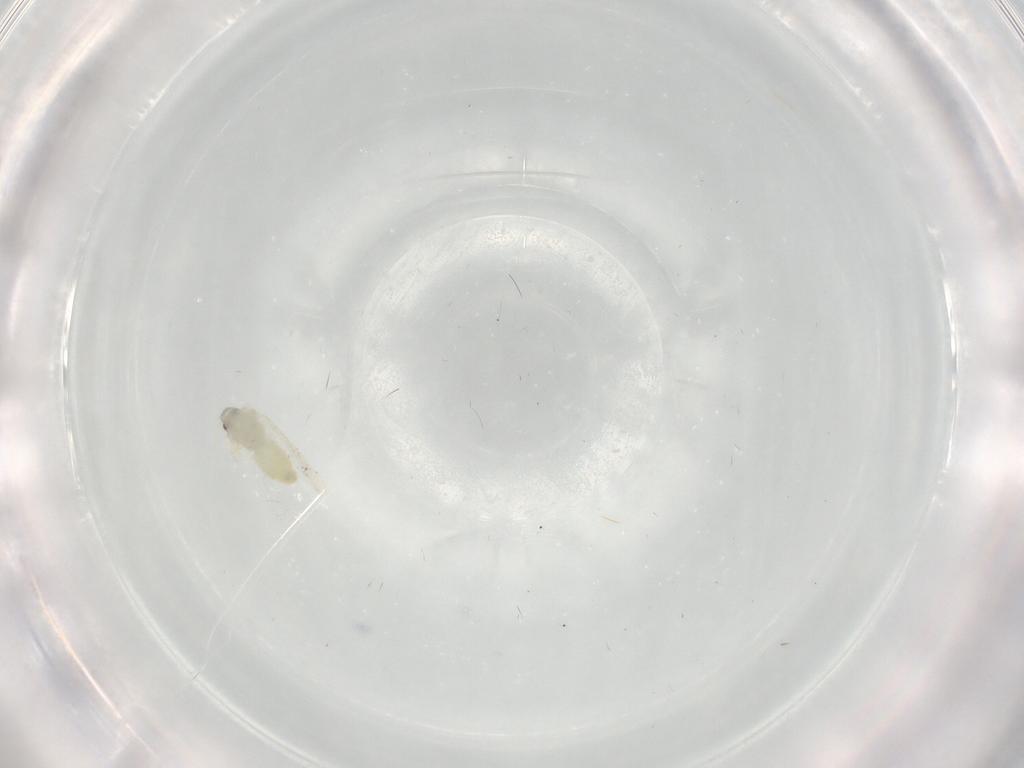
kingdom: Animalia
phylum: Arthropoda
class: Insecta
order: Hemiptera
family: Aleyrodidae
